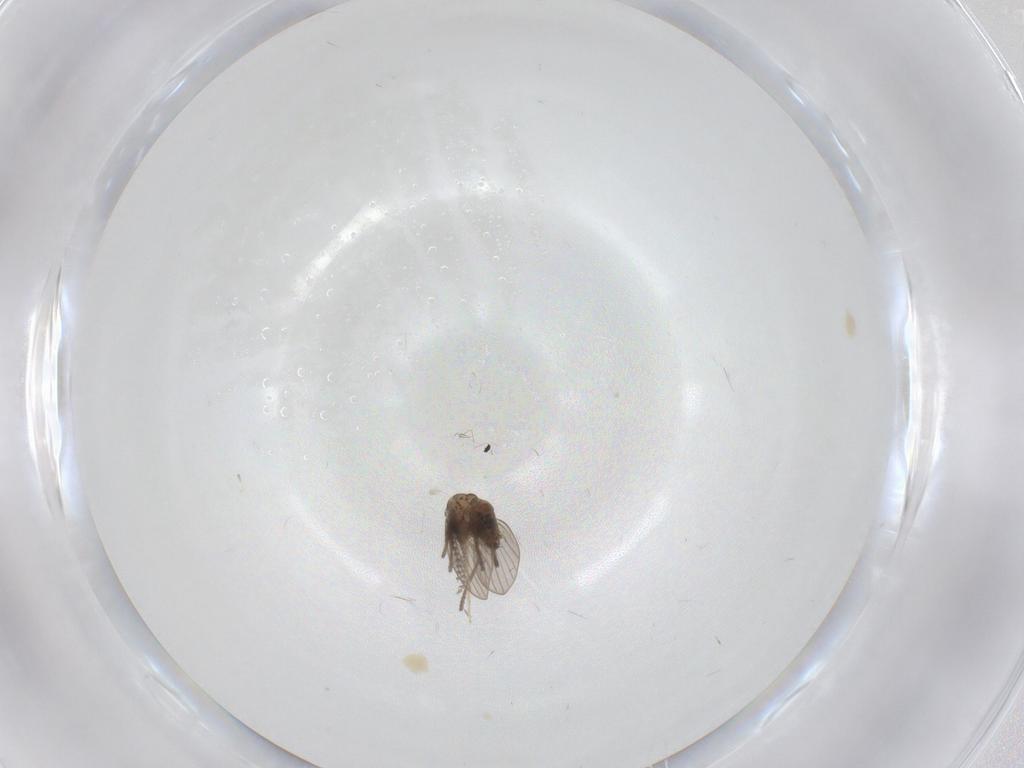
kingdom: Animalia
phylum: Arthropoda
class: Insecta
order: Diptera
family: Psychodidae
